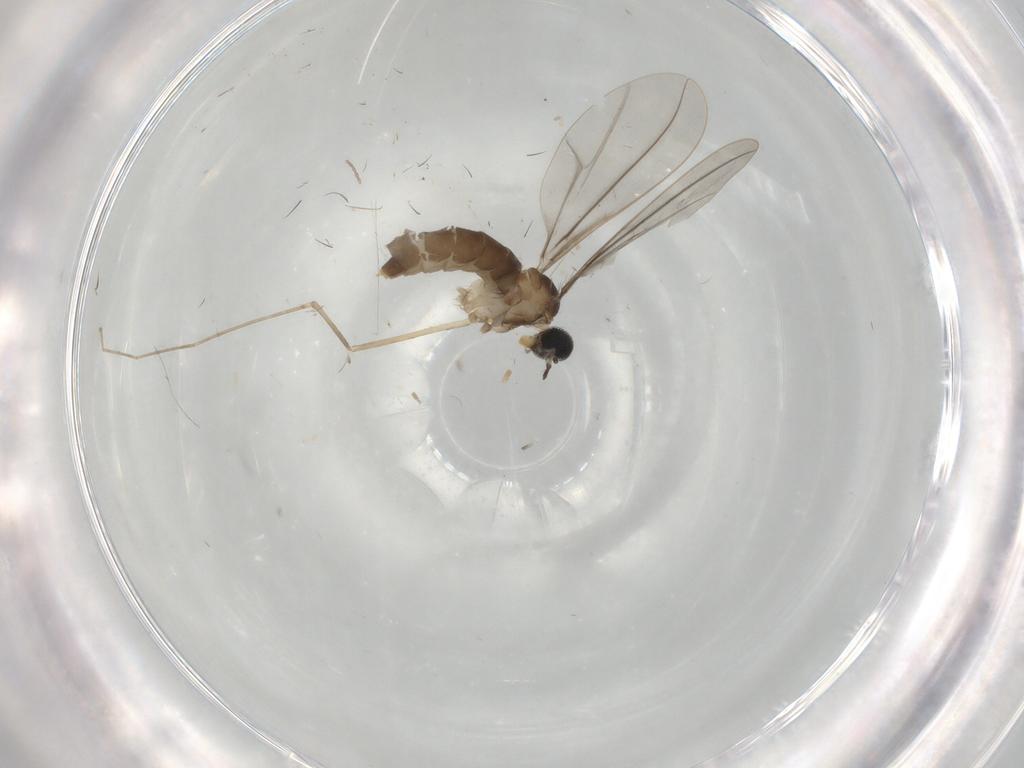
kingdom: Animalia
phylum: Arthropoda
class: Insecta
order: Diptera
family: Cecidomyiidae
